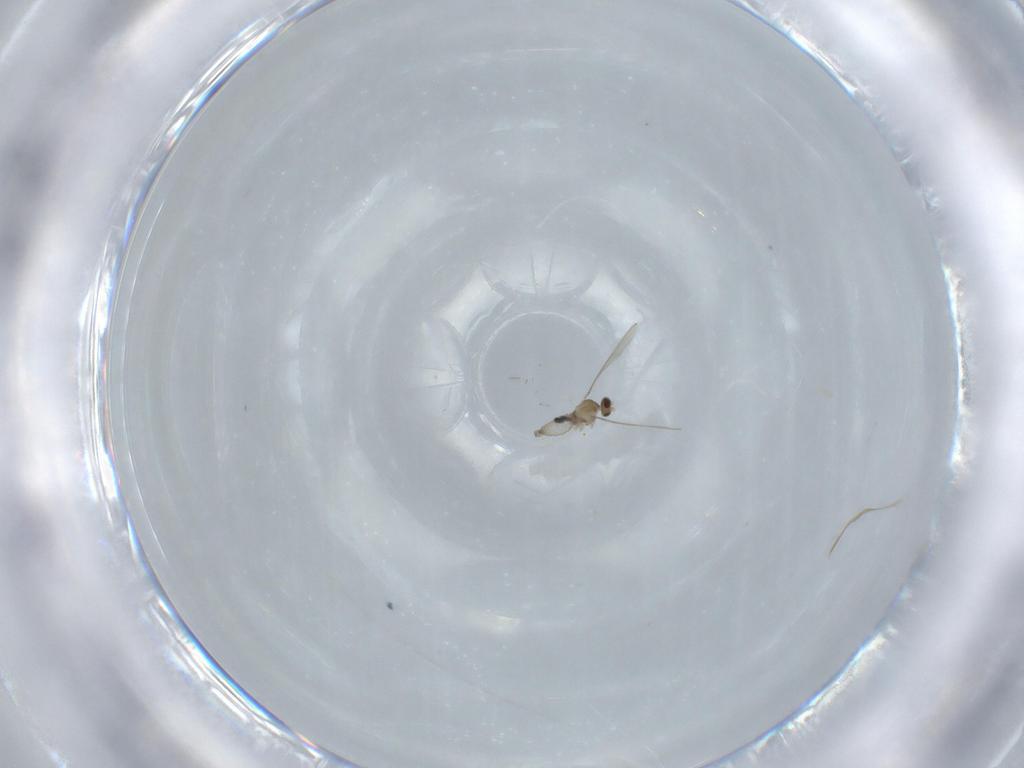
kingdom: Animalia
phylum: Arthropoda
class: Insecta
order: Diptera
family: Cecidomyiidae
